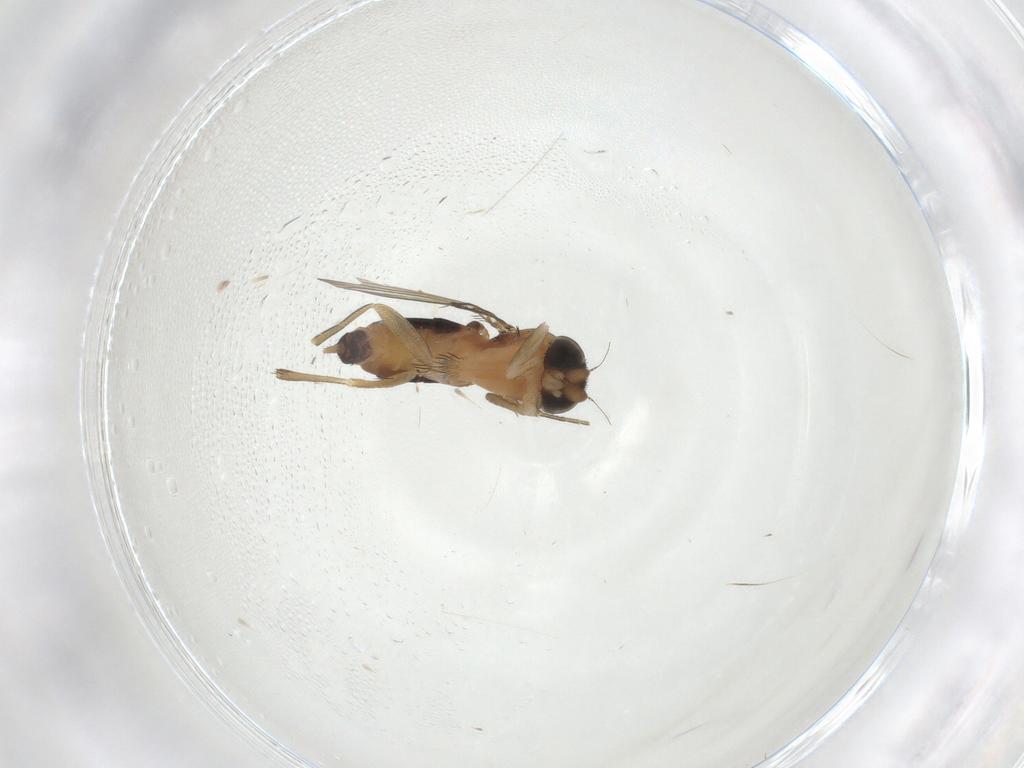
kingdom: Animalia
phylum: Arthropoda
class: Insecta
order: Diptera
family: Phoridae
